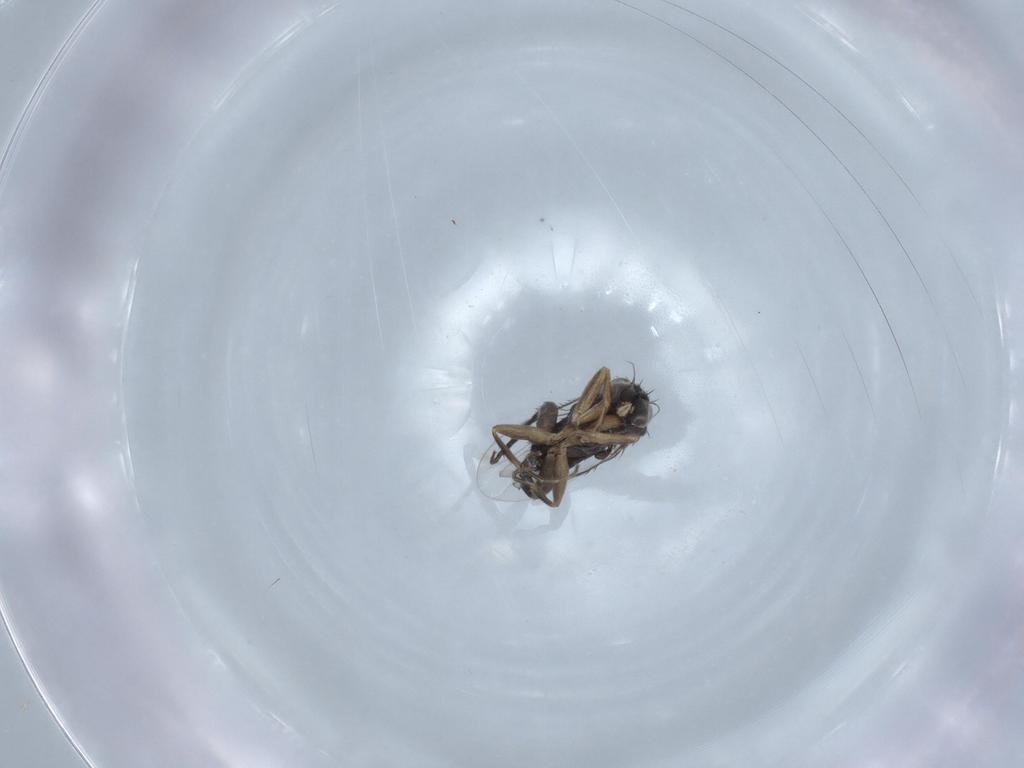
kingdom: Animalia
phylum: Arthropoda
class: Insecta
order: Diptera
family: Phoridae
